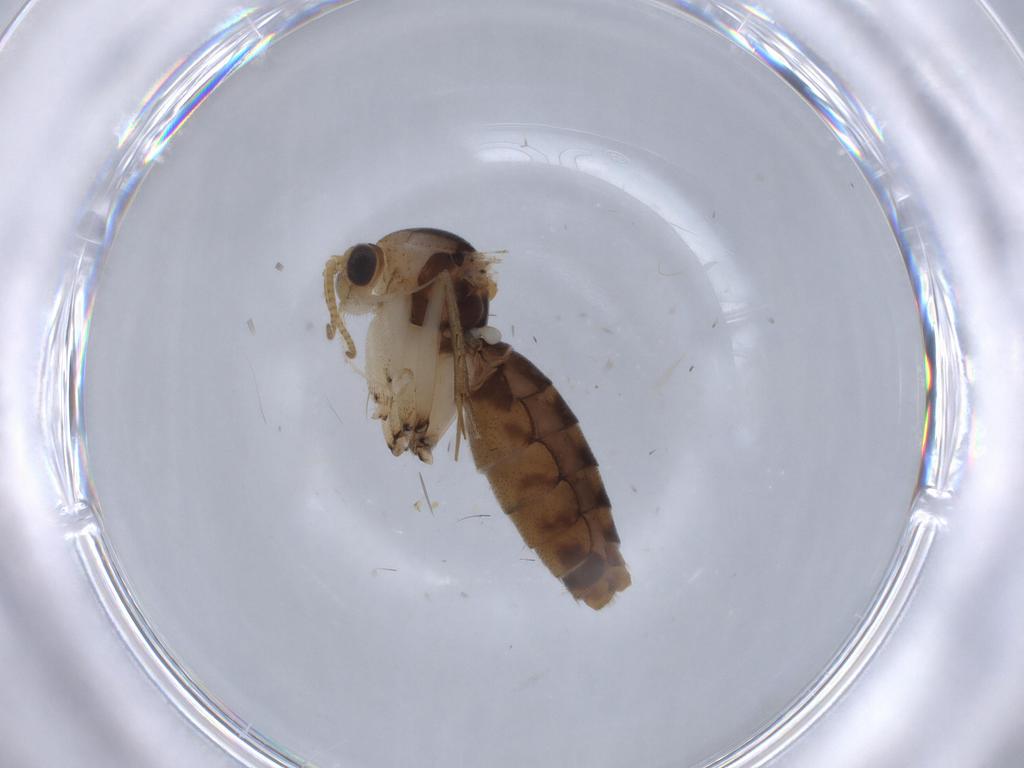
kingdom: Animalia
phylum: Arthropoda
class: Insecta
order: Diptera
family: Mycetophilidae
